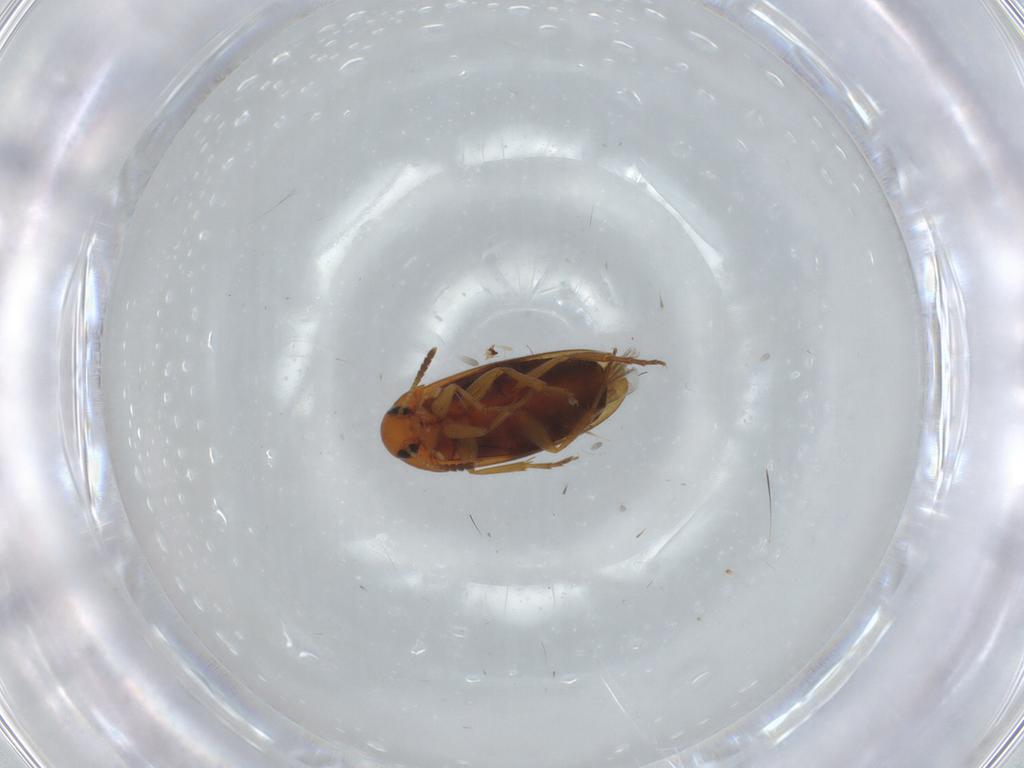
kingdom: Animalia
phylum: Arthropoda
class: Insecta
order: Coleoptera
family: Scraptiidae
